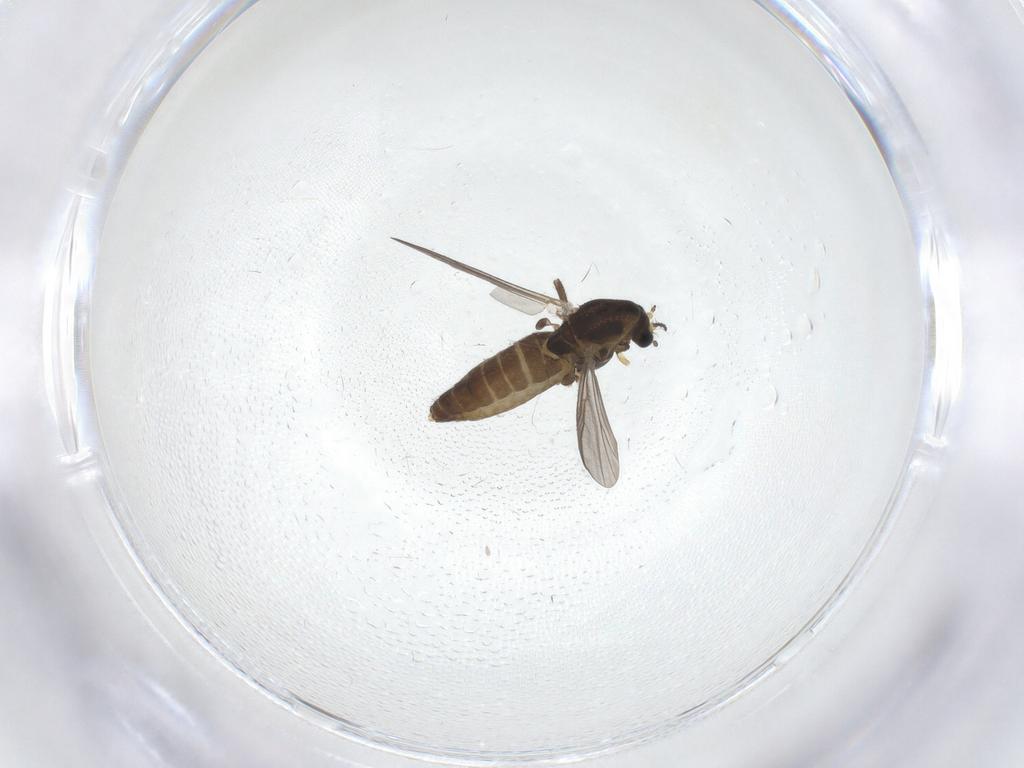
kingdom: Animalia
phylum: Arthropoda
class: Insecta
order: Diptera
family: Chironomidae
